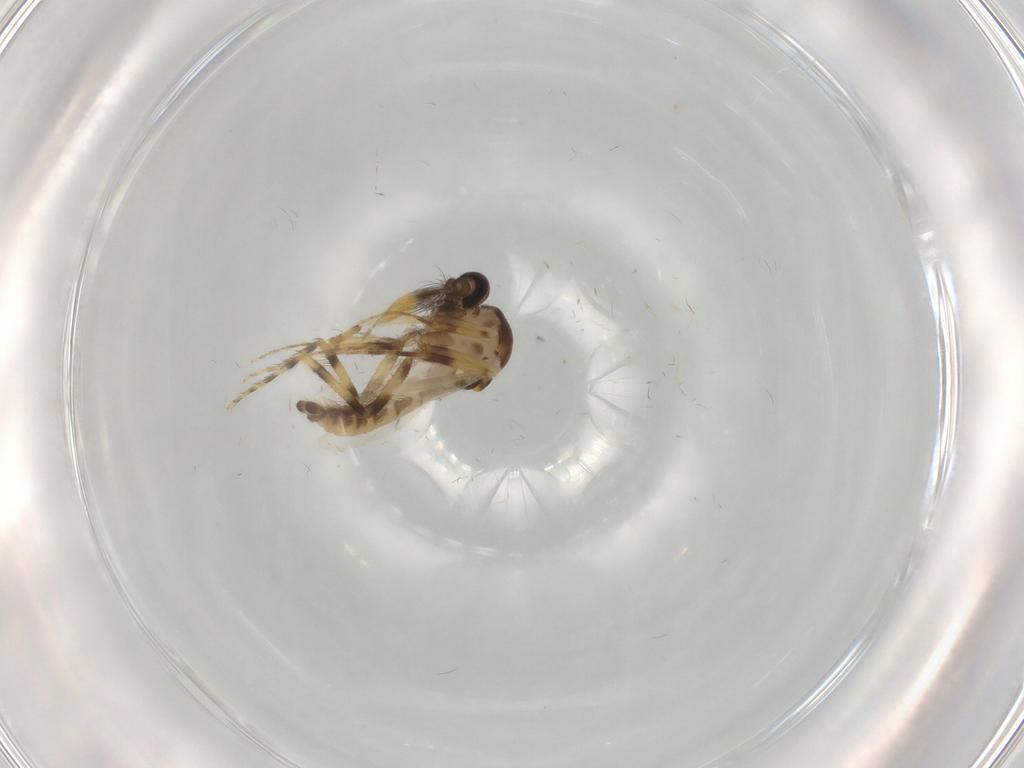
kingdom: Animalia
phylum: Arthropoda
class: Insecta
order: Diptera
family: Ceratopogonidae
